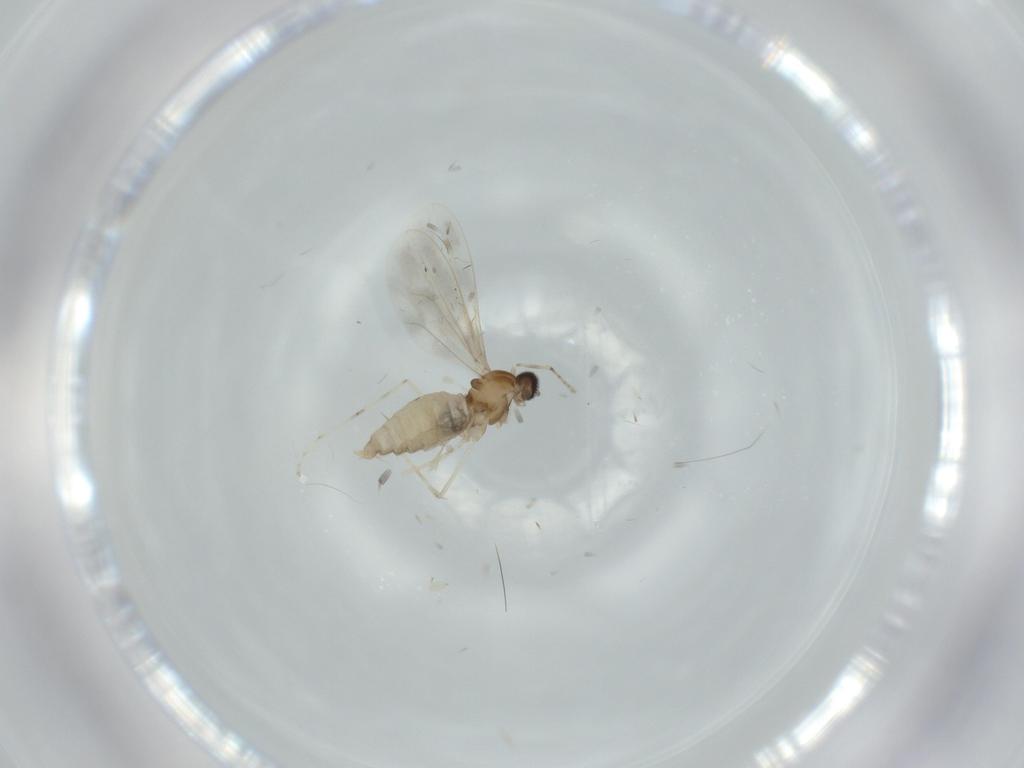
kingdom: Animalia
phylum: Arthropoda
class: Insecta
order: Diptera
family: Cecidomyiidae
